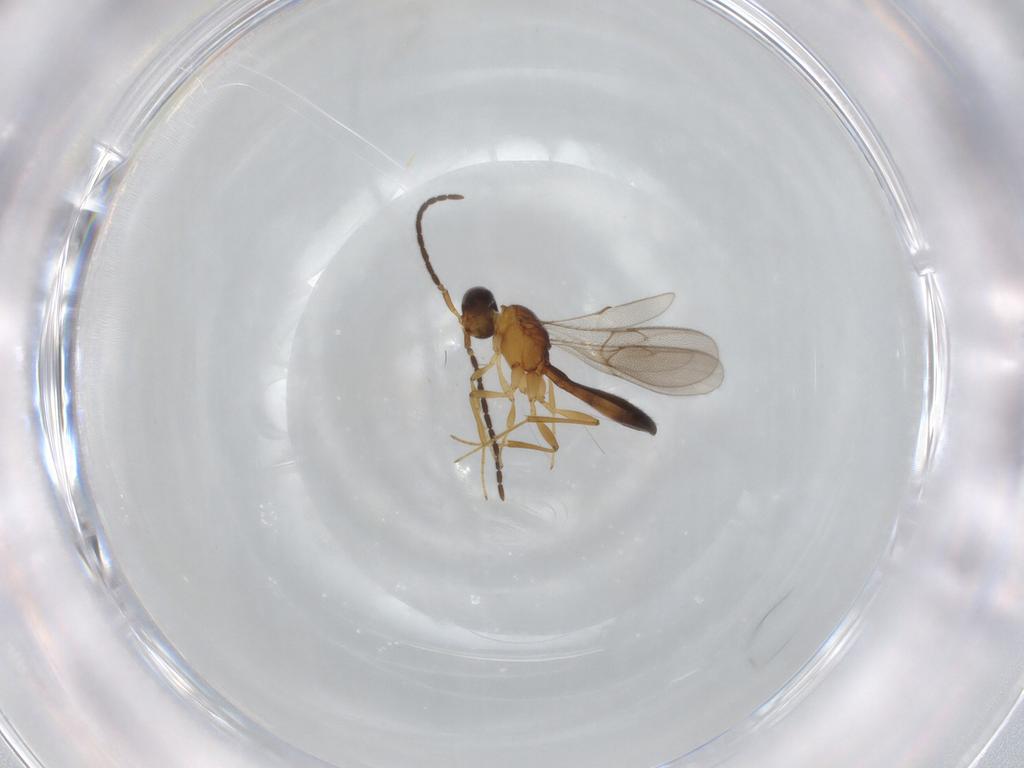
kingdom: Animalia
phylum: Arthropoda
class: Insecta
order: Hymenoptera
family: Scelionidae
